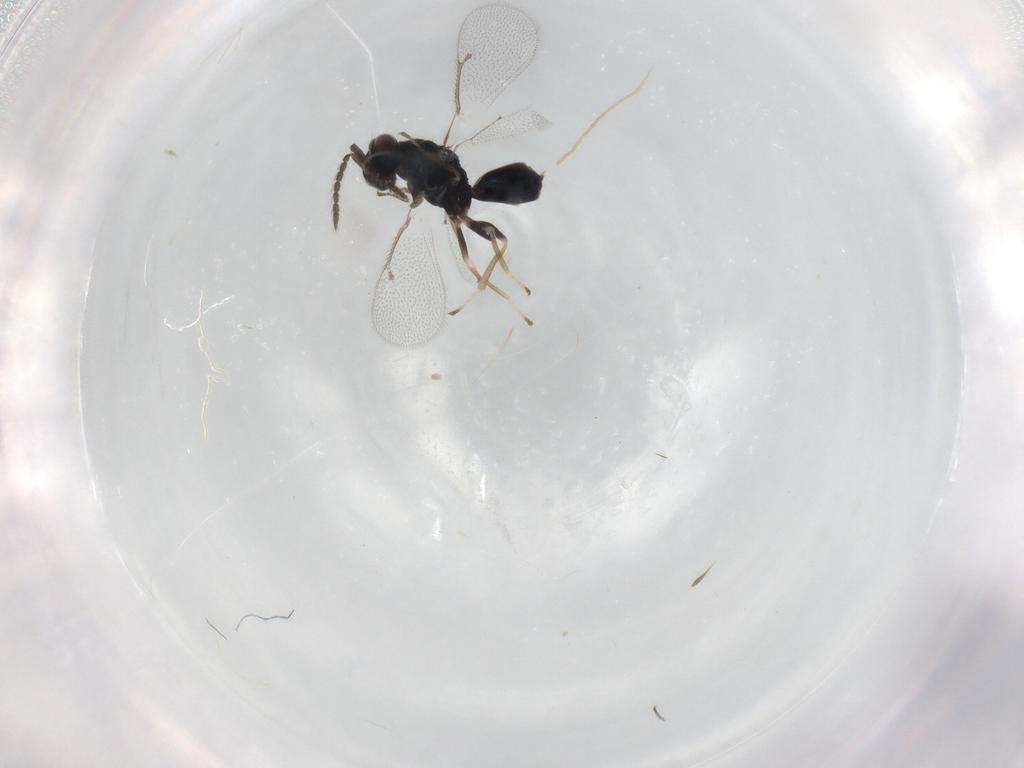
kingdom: Animalia
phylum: Arthropoda
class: Insecta
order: Hymenoptera
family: Eulophidae
